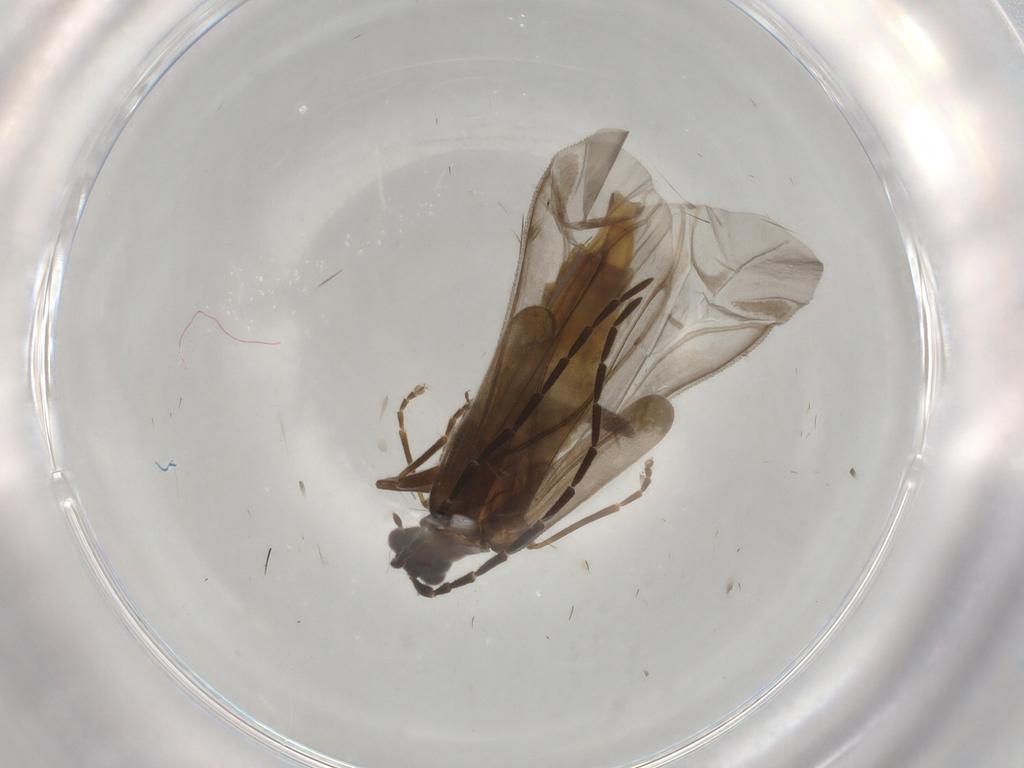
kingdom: Animalia
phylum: Arthropoda
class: Insecta
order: Coleoptera
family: Cantharidae
